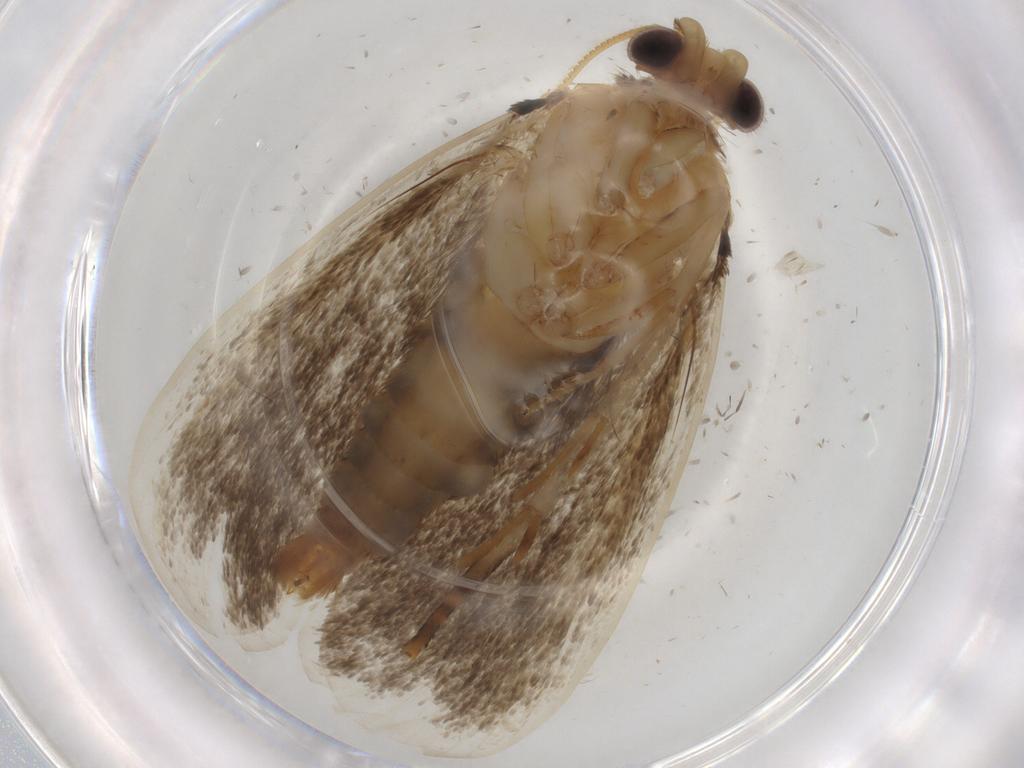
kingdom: Animalia
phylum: Arthropoda
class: Insecta
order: Lepidoptera
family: Tineidae
